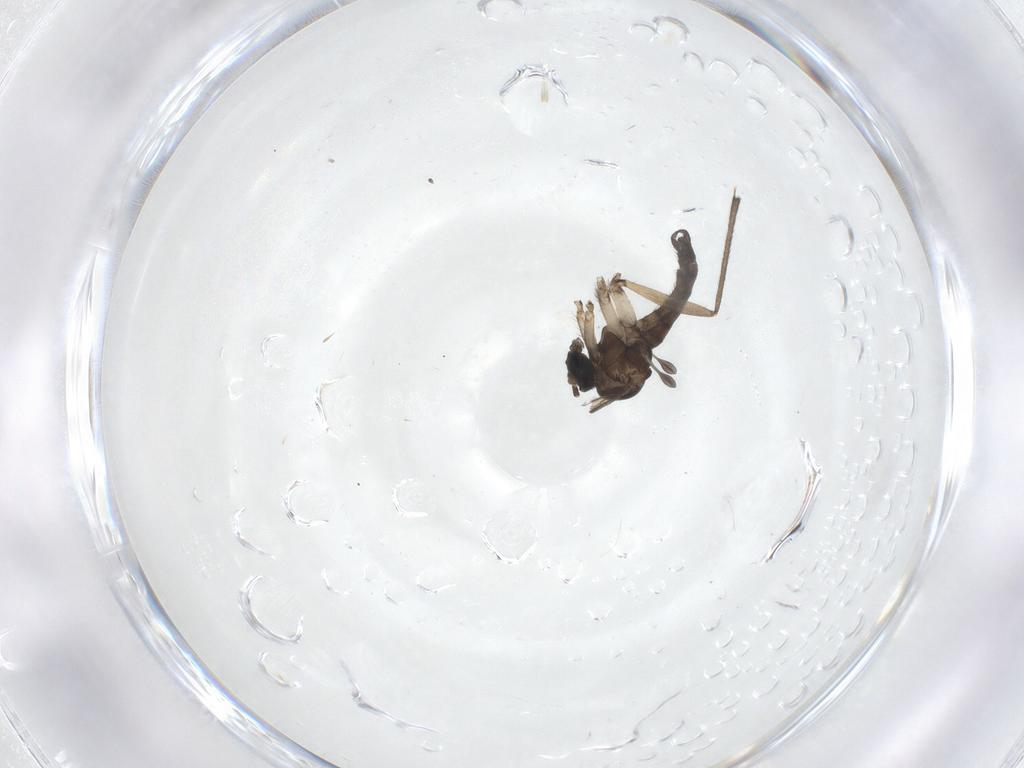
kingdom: Animalia
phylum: Arthropoda
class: Insecta
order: Diptera
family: Sciaridae
